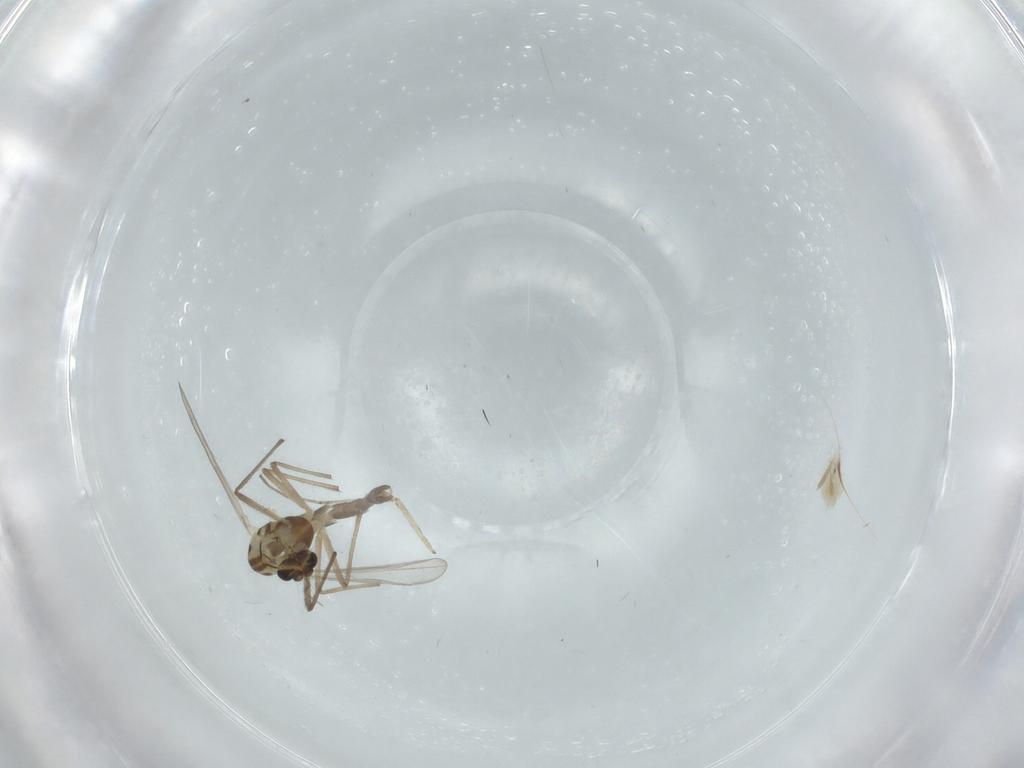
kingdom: Animalia
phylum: Arthropoda
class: Insecta
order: Diptera
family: Chironomidae
